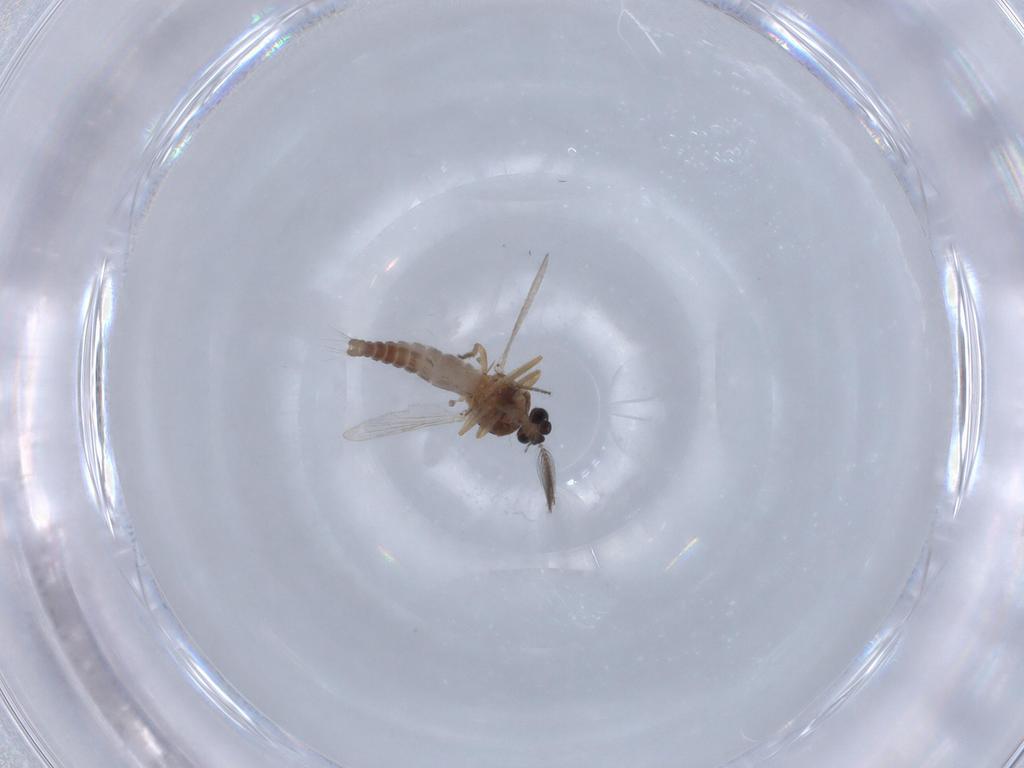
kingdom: Animalia
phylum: Arthropoda
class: Insecta
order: Diptera
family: Ceratopogonidae
